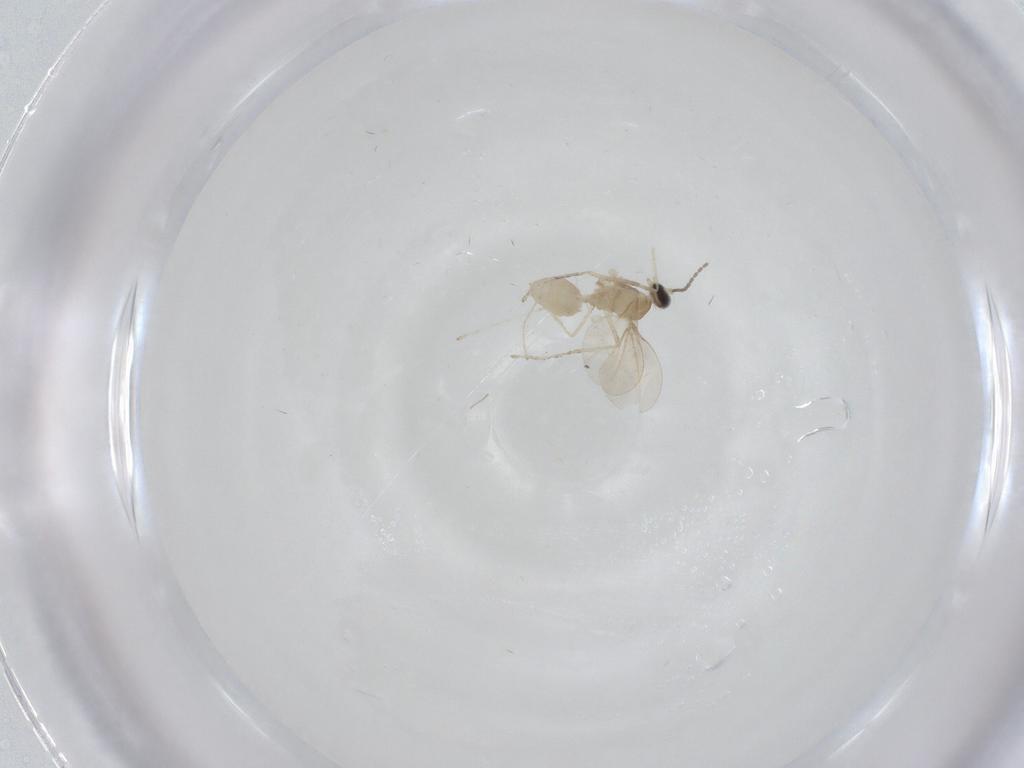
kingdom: Animalia
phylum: Arthropoda
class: Insecta
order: Diptera
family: Cecidomyiidae
